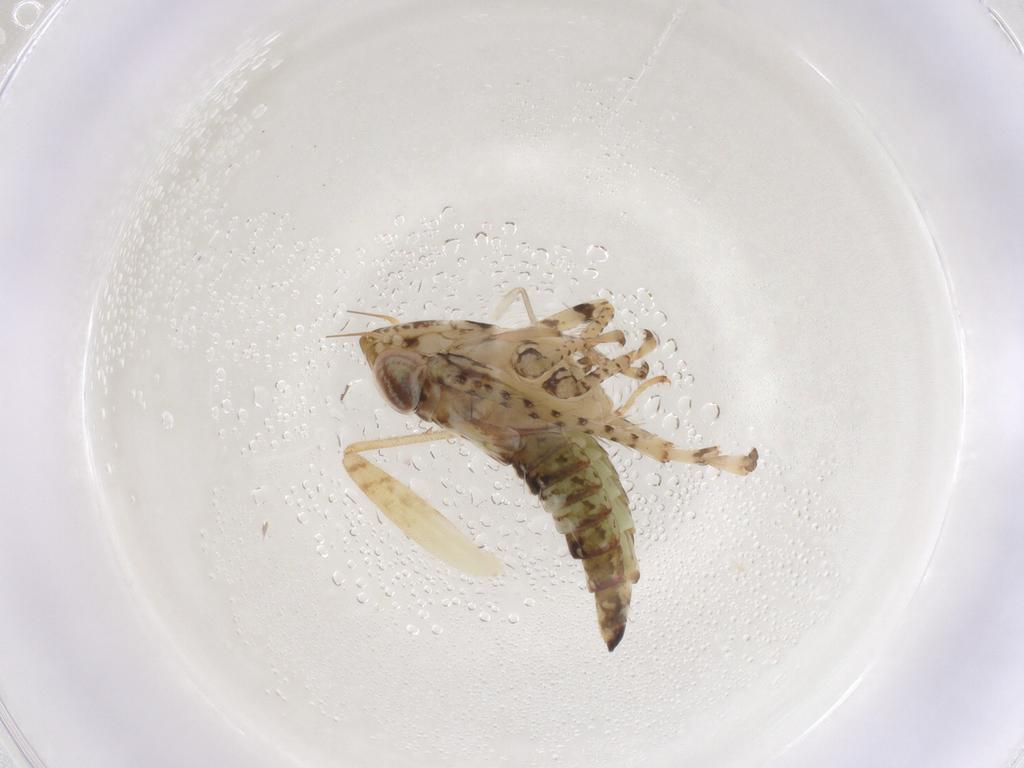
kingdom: Animalia
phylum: Arthropoda
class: Insecta
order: Hemiptera
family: Cicadellidae
